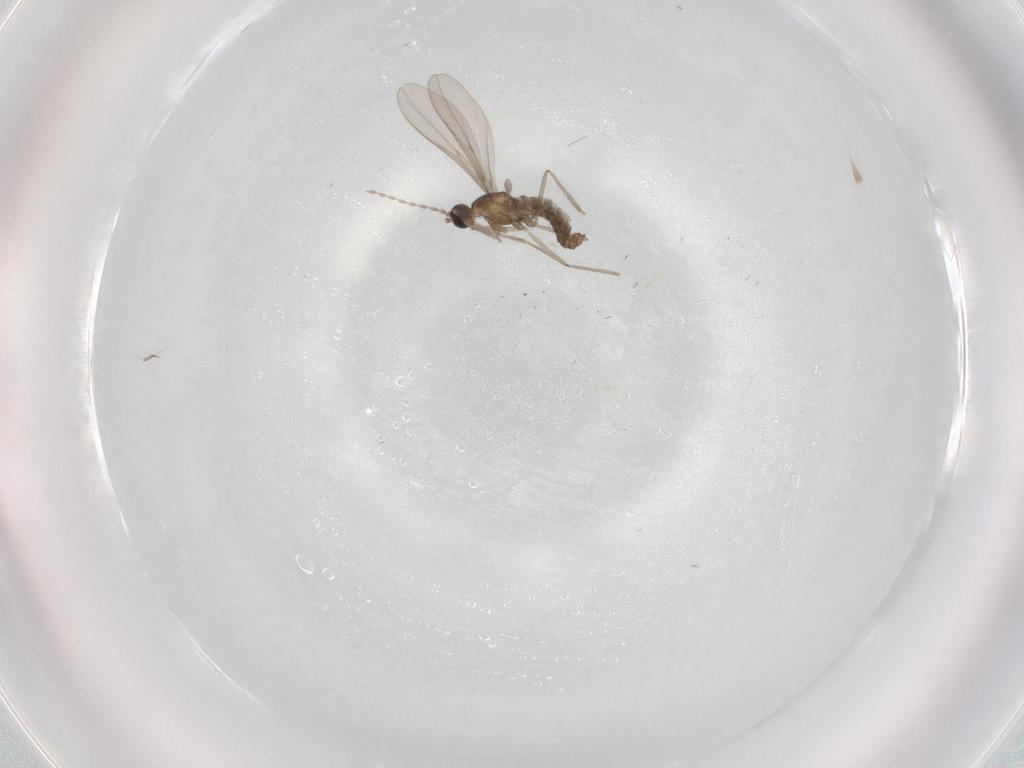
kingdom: Animalia
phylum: Arthropoda
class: Insecta
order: Diptera
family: Cecidomyiidae
